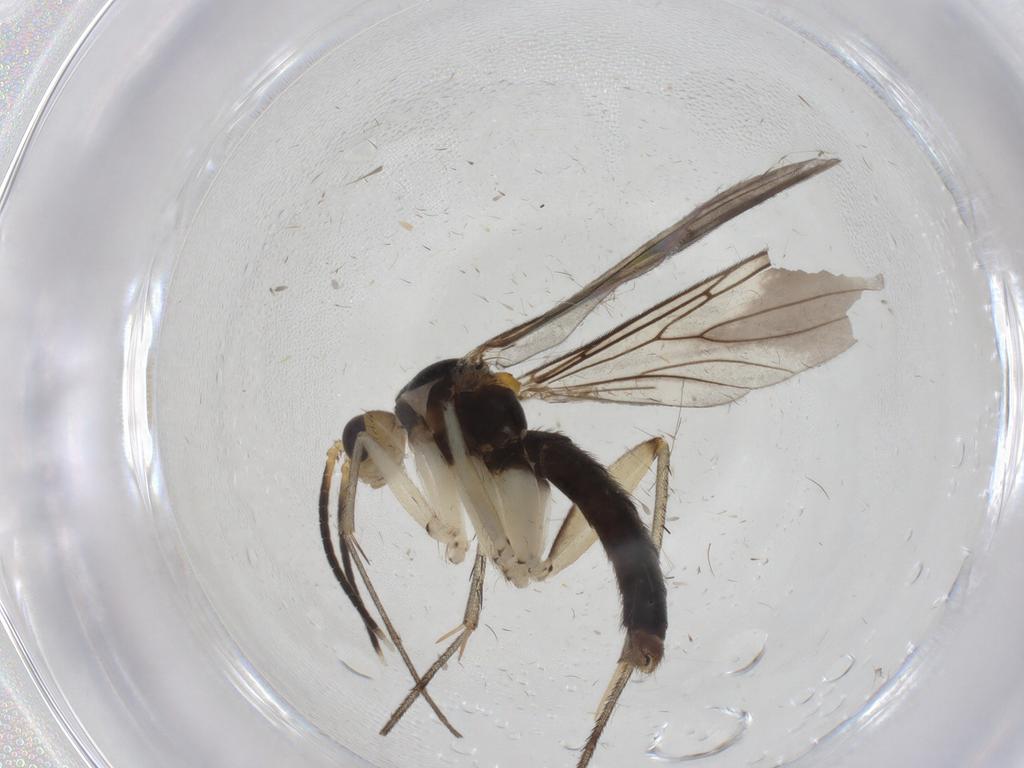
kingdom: Animalia
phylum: Arthropoda
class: Insecta
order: Diptera
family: Mycetophilidae
